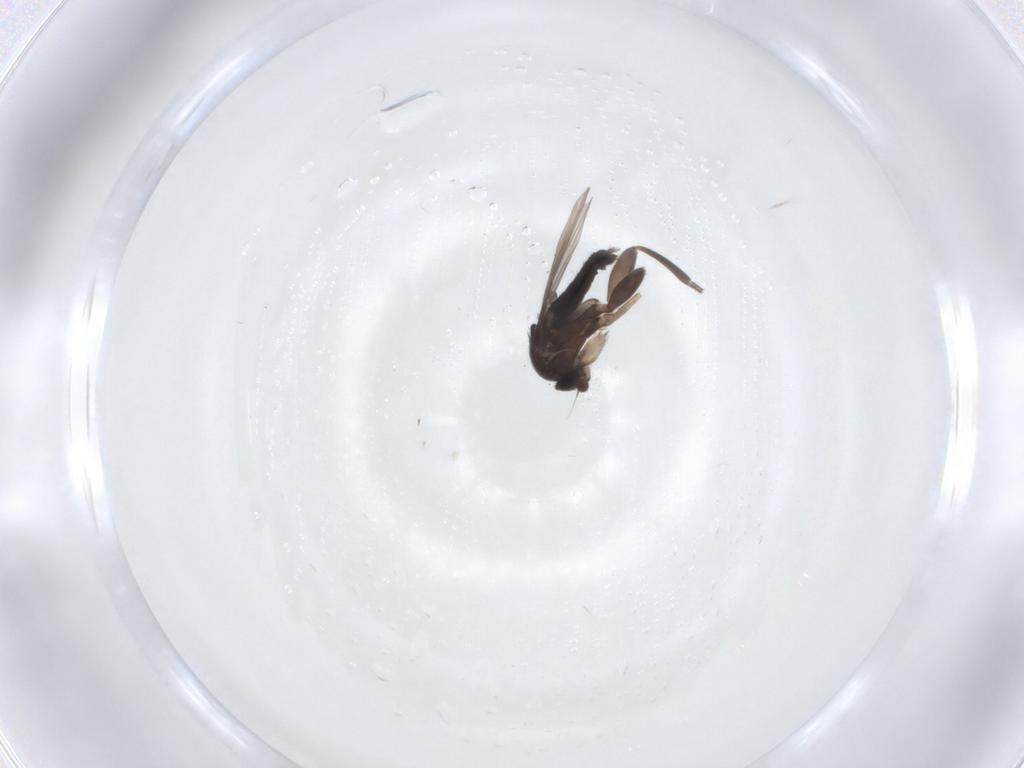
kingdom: Animalia
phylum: Arthropoda
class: Insecta
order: Diptera
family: Phoridae
